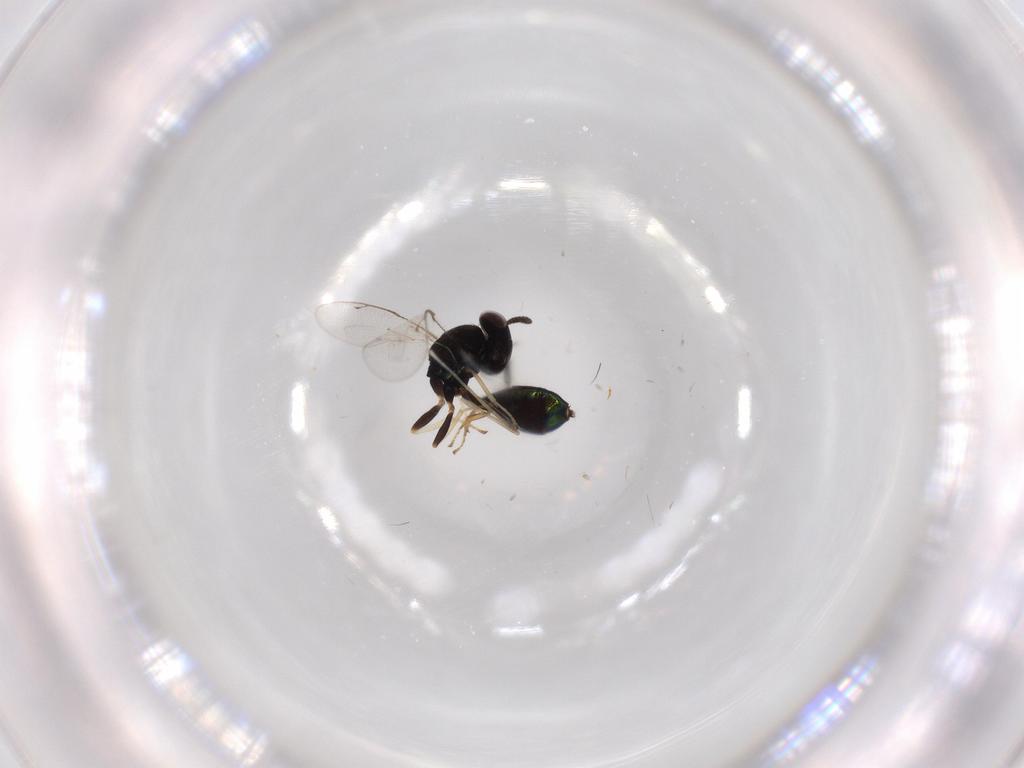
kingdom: Animalia
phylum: Arthropoda
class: Insecta
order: Hymenoptera
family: Pteromalidae
